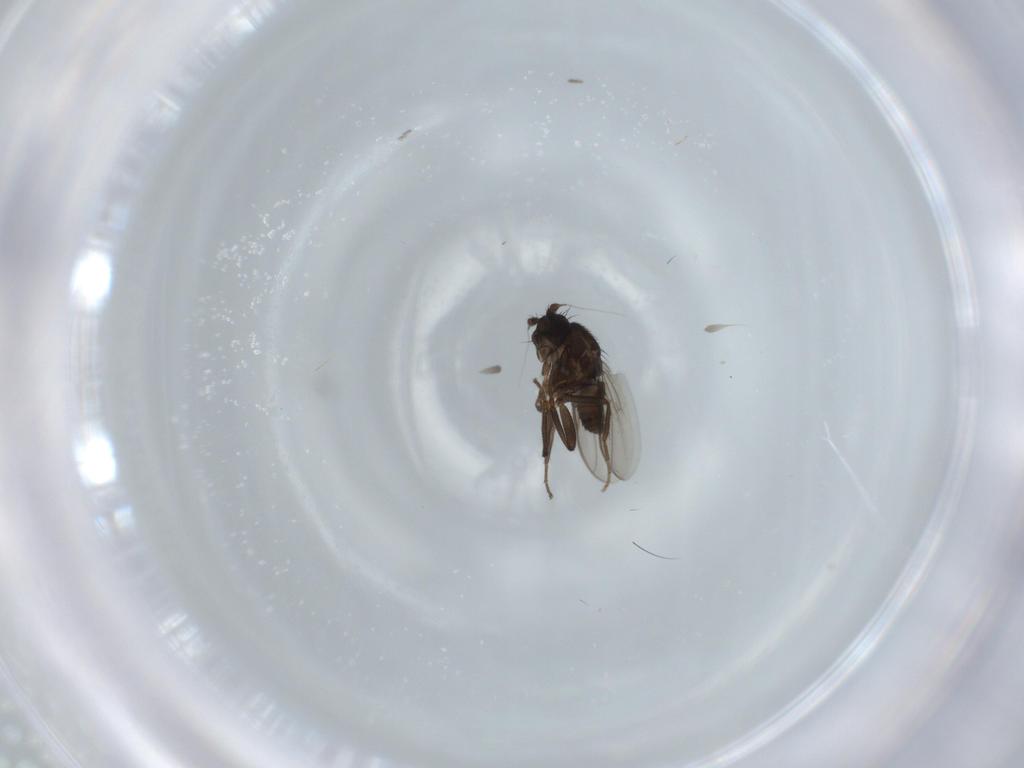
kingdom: Animalia
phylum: Arthropoda
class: Insecta
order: Diptera
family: Sphaeroceridae
